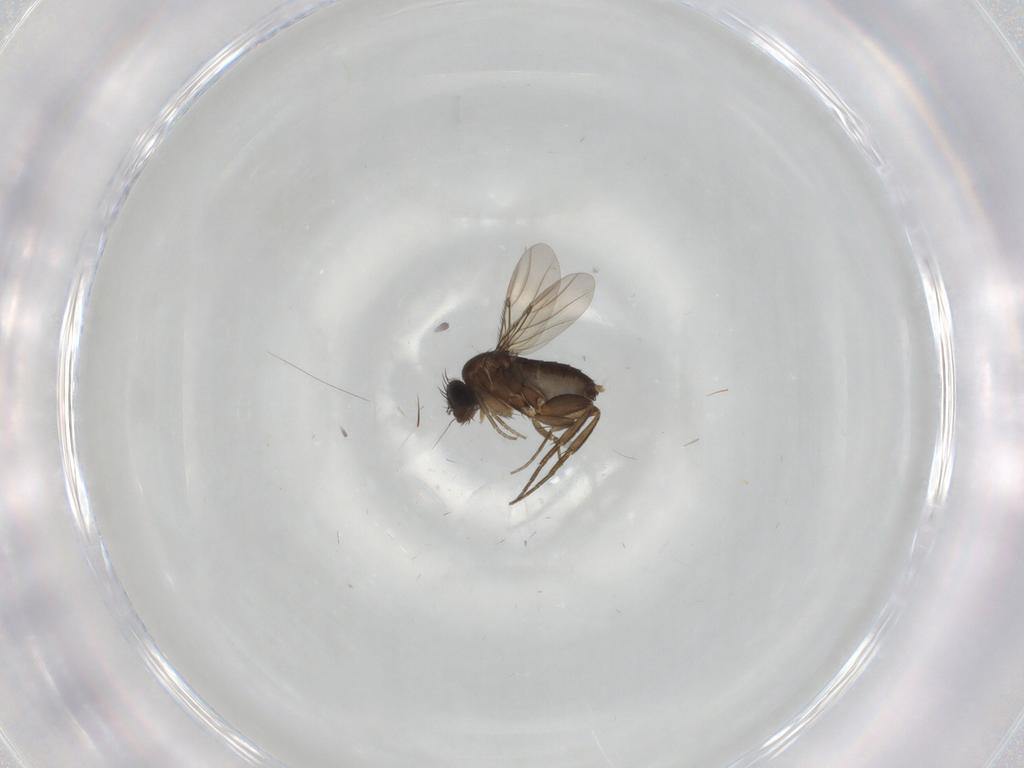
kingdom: Animalia
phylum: Arthropoda
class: Insecta
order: Diptera
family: Phoridae
